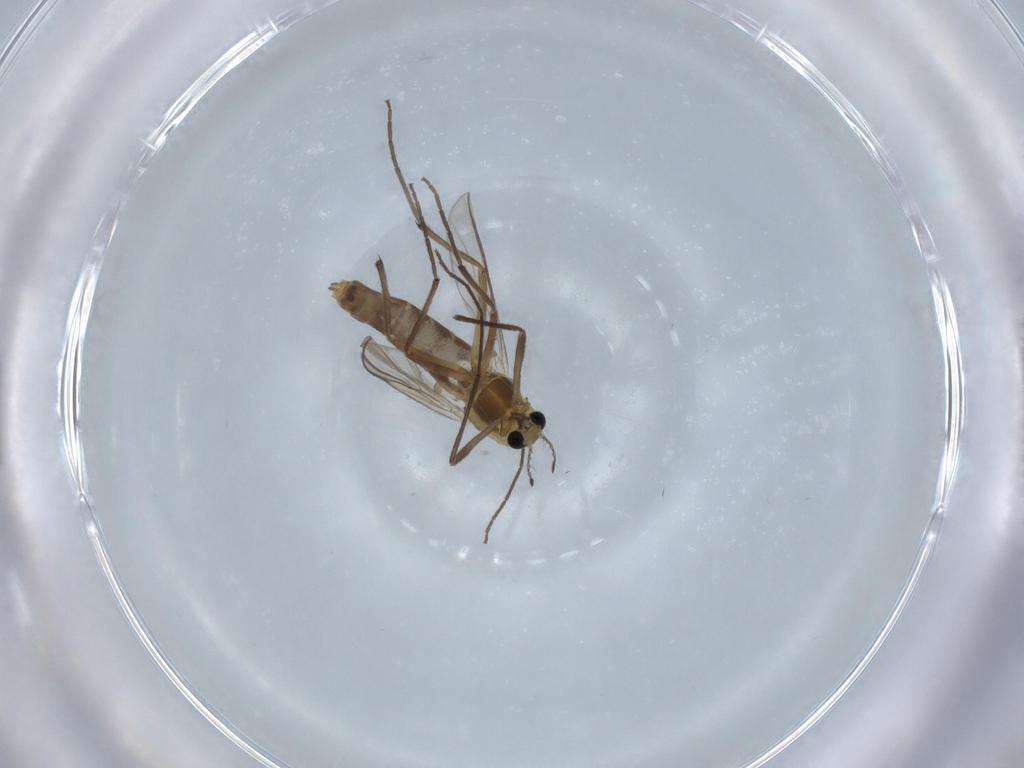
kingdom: Animalia
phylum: Arthropoda
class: Insecta
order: Diptera
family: Chironomidae
